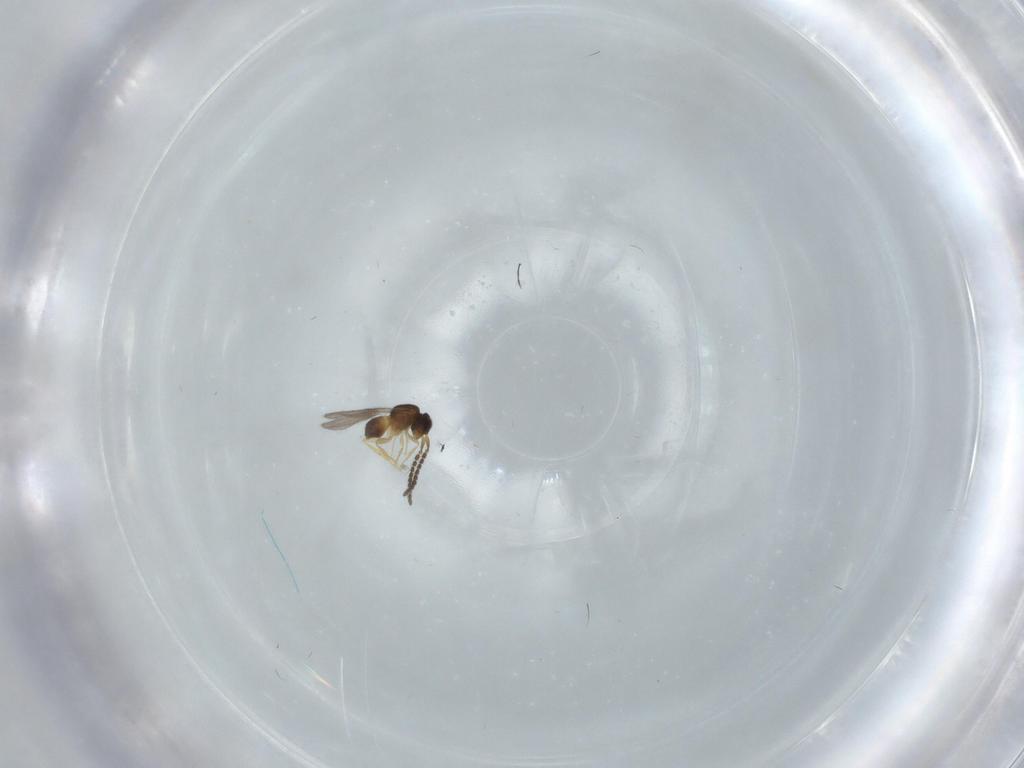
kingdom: Animalia
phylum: Arthropoda
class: Insecta
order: Hymenoptera
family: Ceraphronidae
